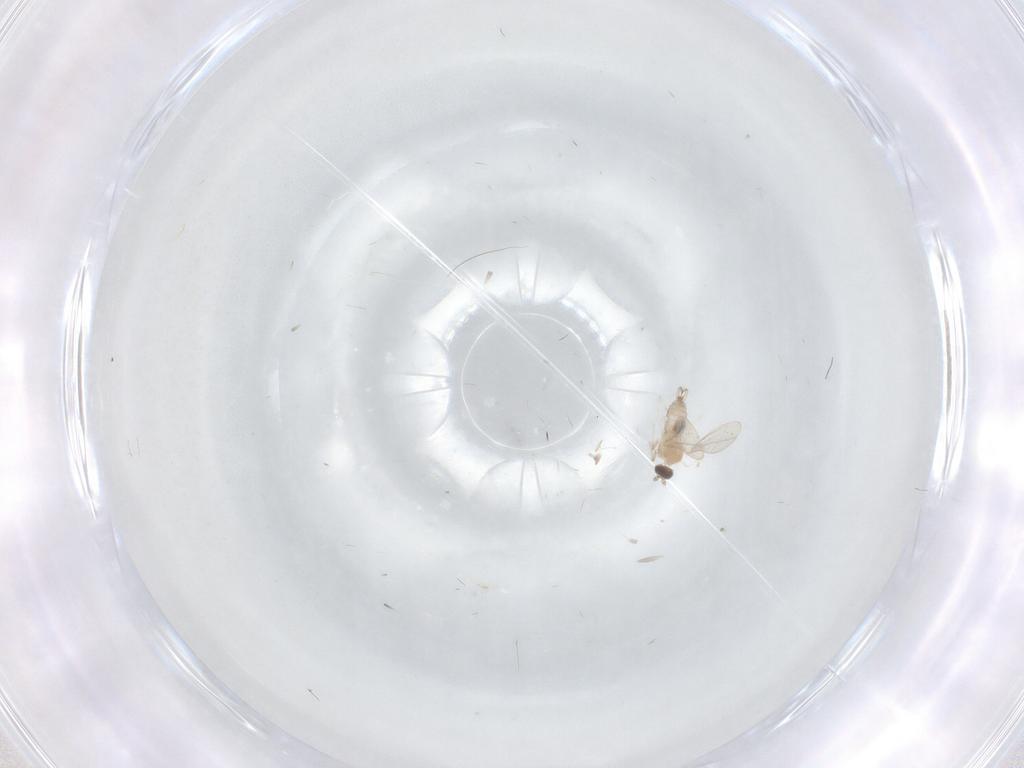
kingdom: Animalia
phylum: Arthropoda
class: Insecta
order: Diptera
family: Cecidomyiidae
